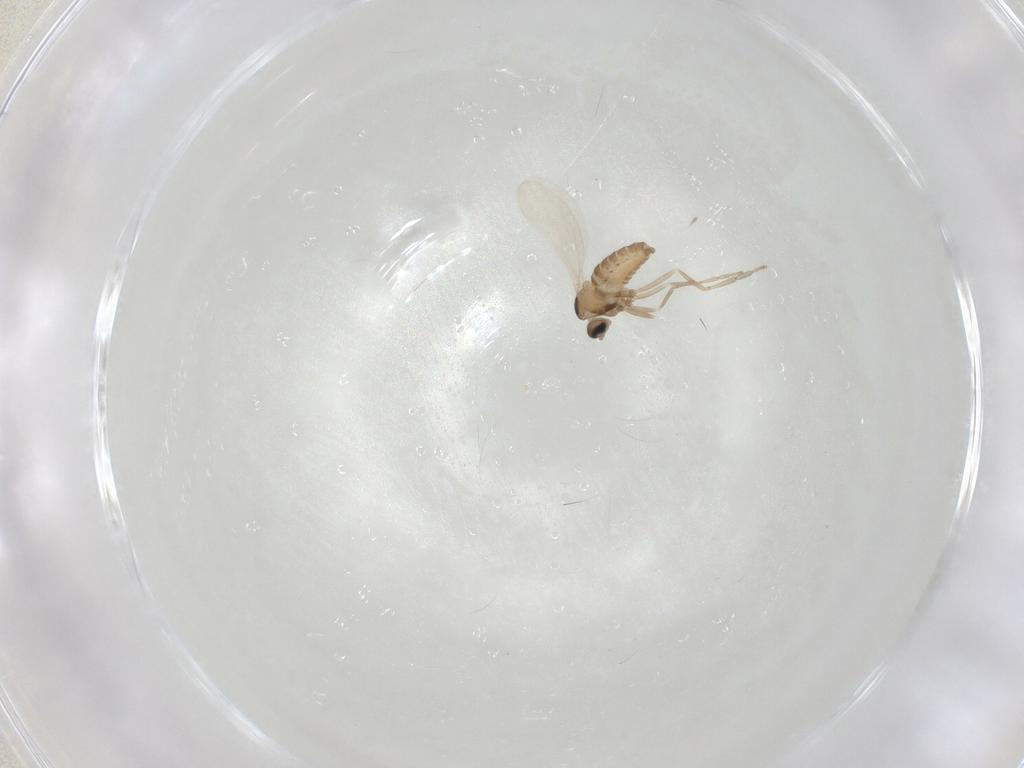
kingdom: Animalia
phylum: Arthropoda
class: Insecta
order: Diptera
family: Cecidomyiidae
